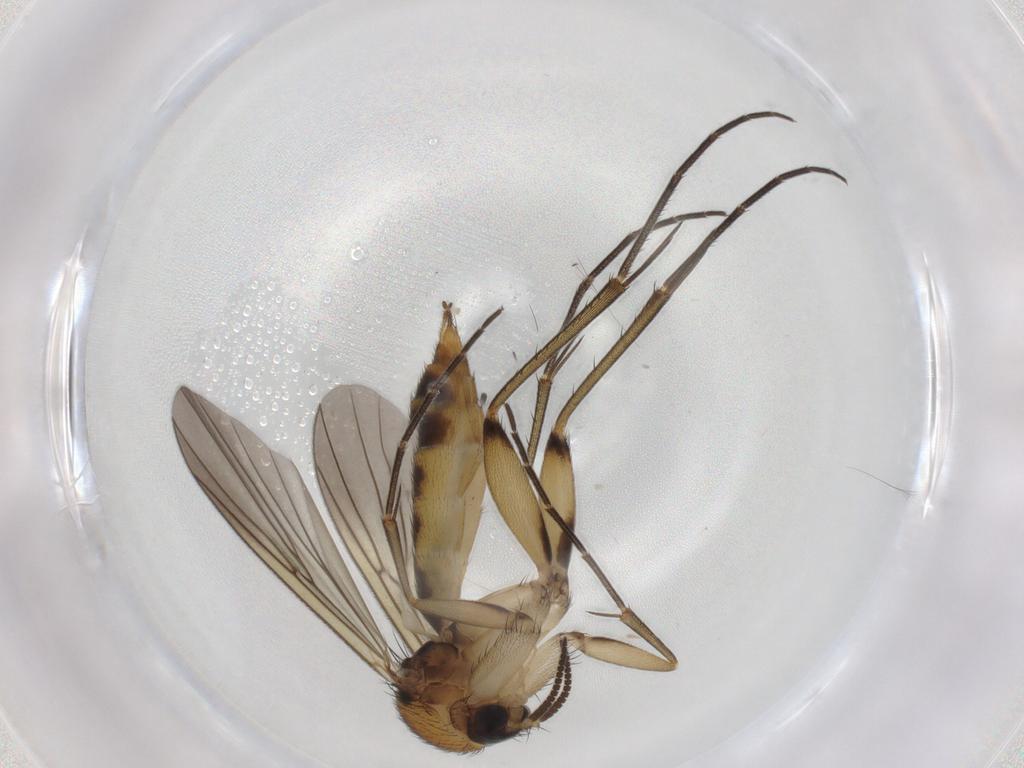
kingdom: Animalia
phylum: Arthropoda
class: Insecta
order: Diptera
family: Mycetophilidae
